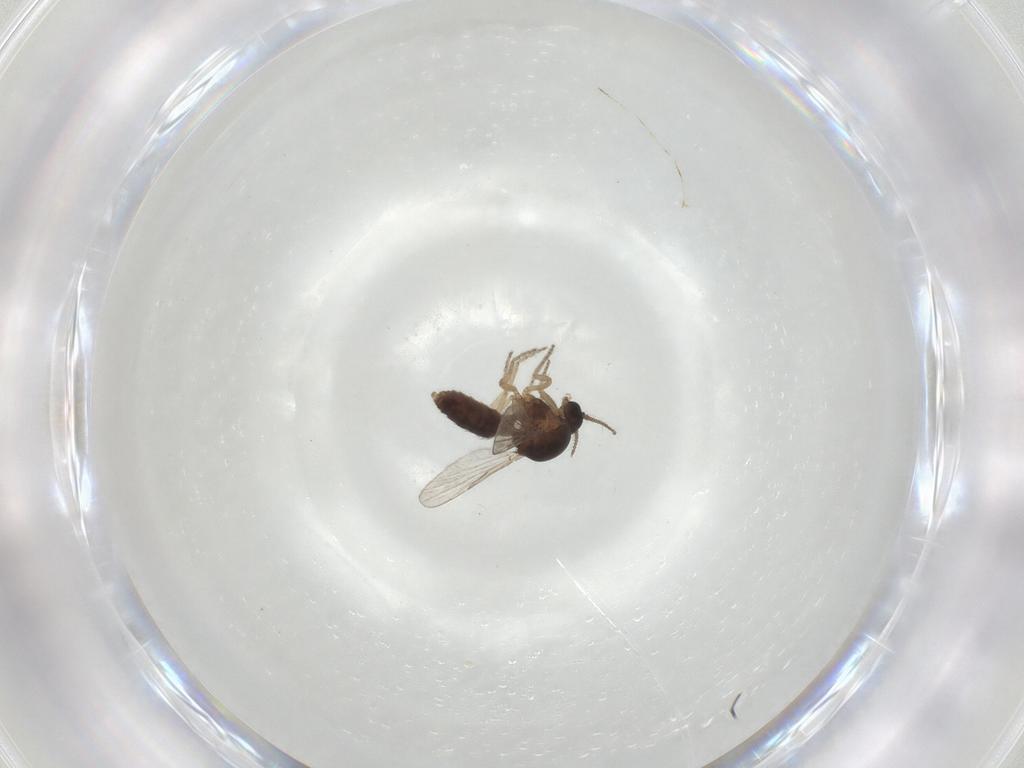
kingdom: Animalia
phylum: Arthropoda
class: Insecta
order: Diptera
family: Ceratopogonidae
